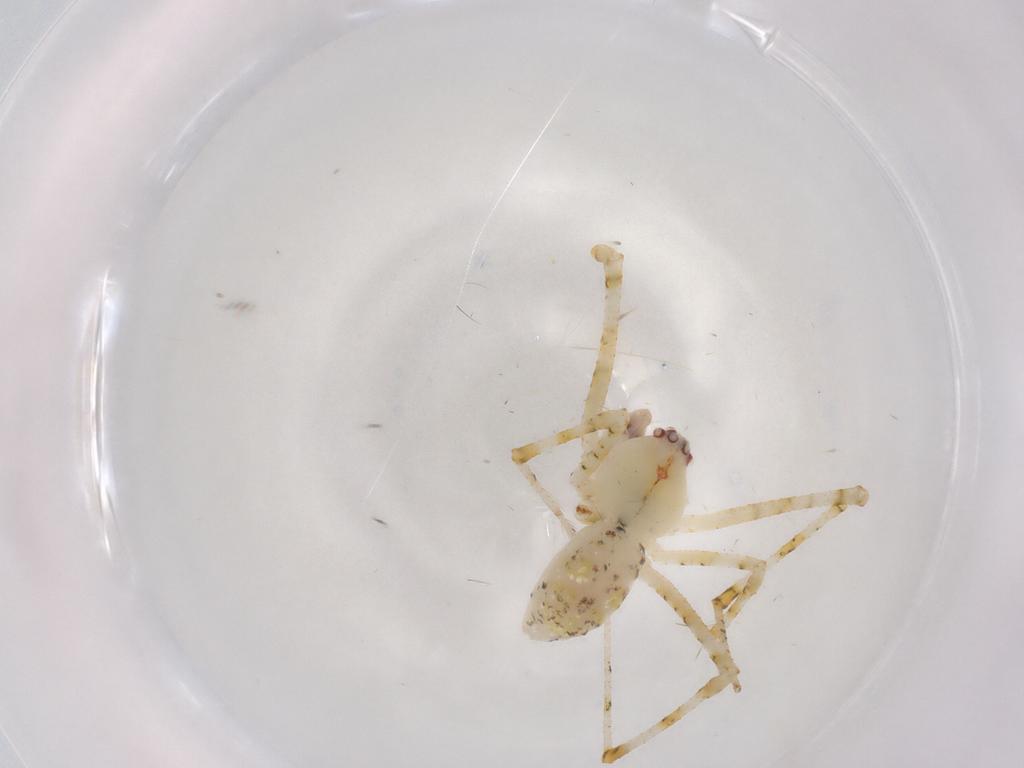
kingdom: Animalia
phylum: Arthropoda
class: Arachnida
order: Araneae
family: Theridiidae
